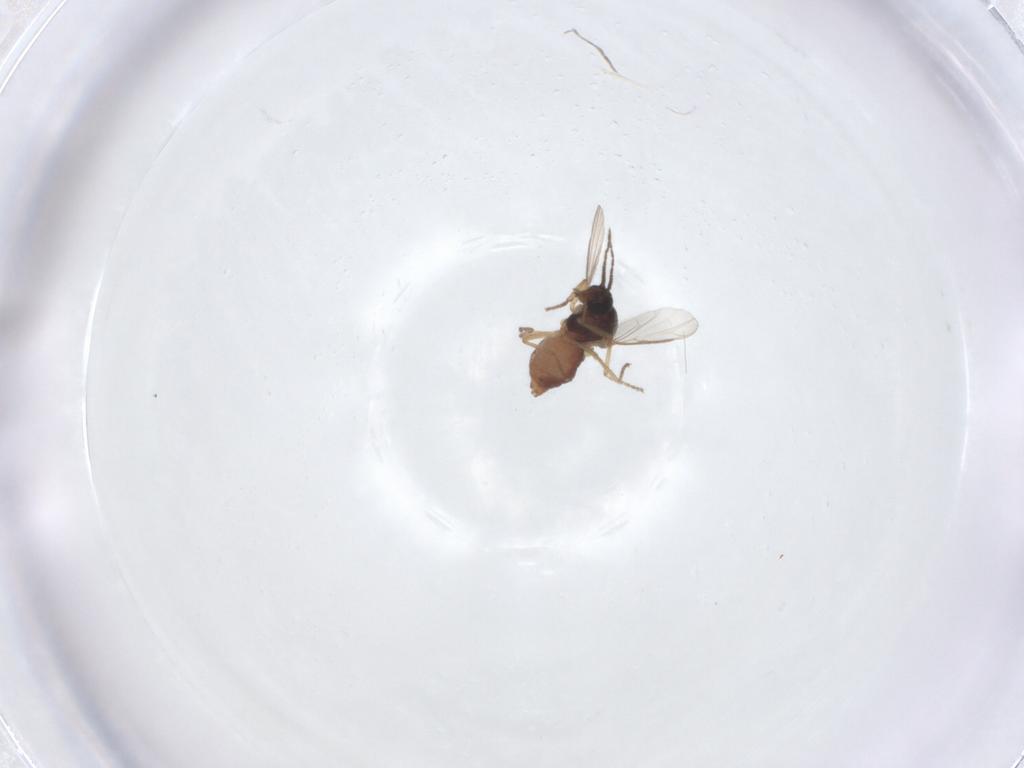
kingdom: Animalia
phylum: Arthropoda
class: Insecta
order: Diptera
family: Ceratopogonidae
